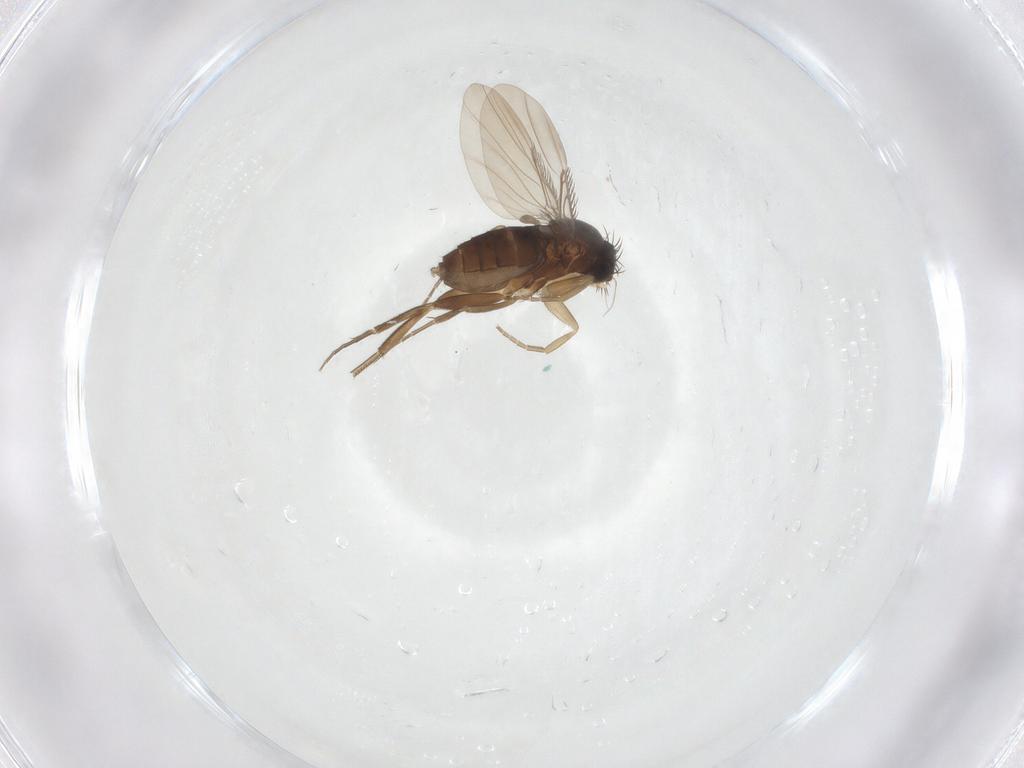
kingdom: Animalia
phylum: Arthropoda
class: Insecta
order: Diptera
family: Phoridae
